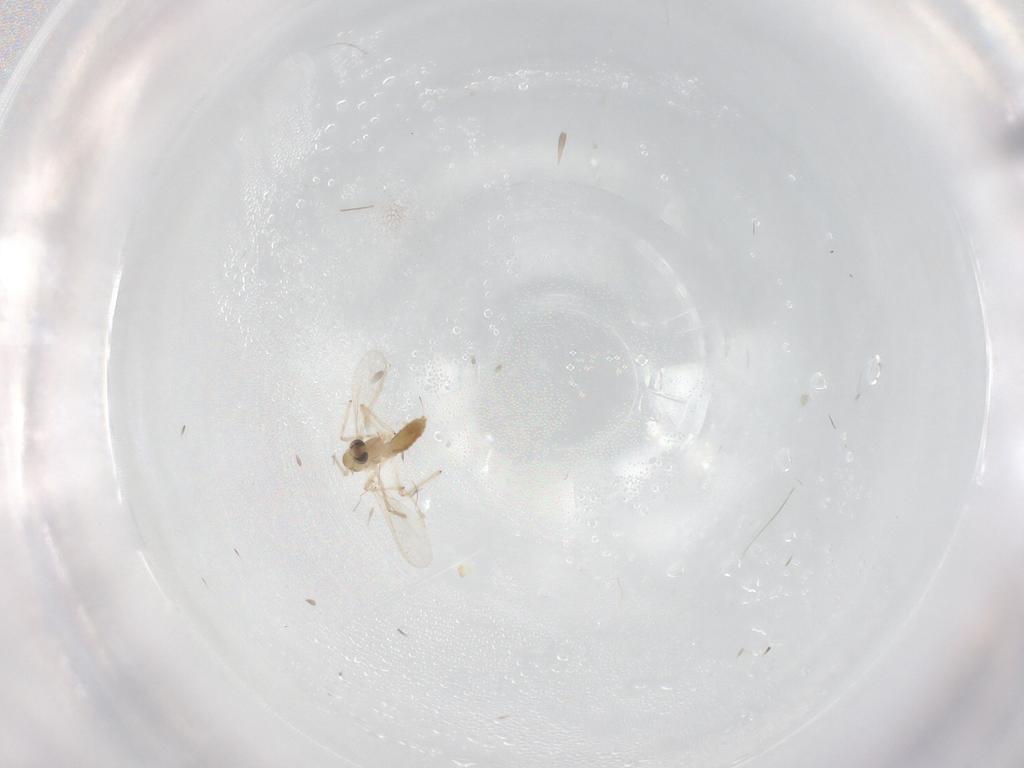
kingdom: Animalia
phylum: Arthropoda
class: Insecta
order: Diptera
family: Chironomidae
